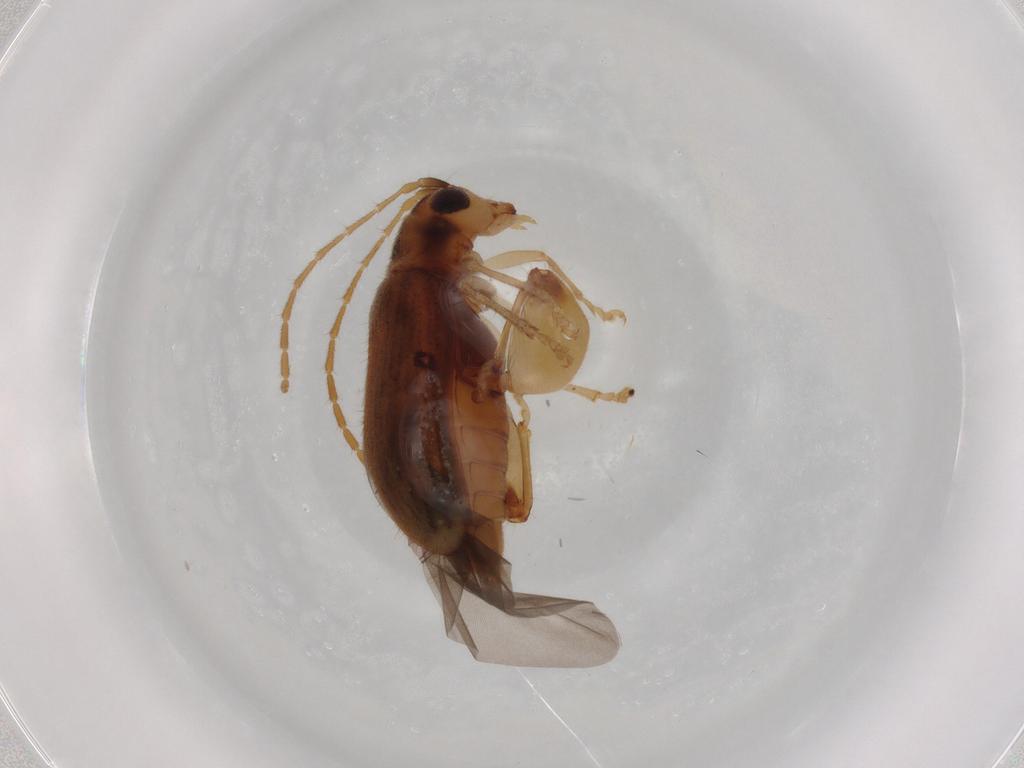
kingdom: Animalia
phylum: Arthropoda
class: Insecta
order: Coleoptera
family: Chrysomelidae
